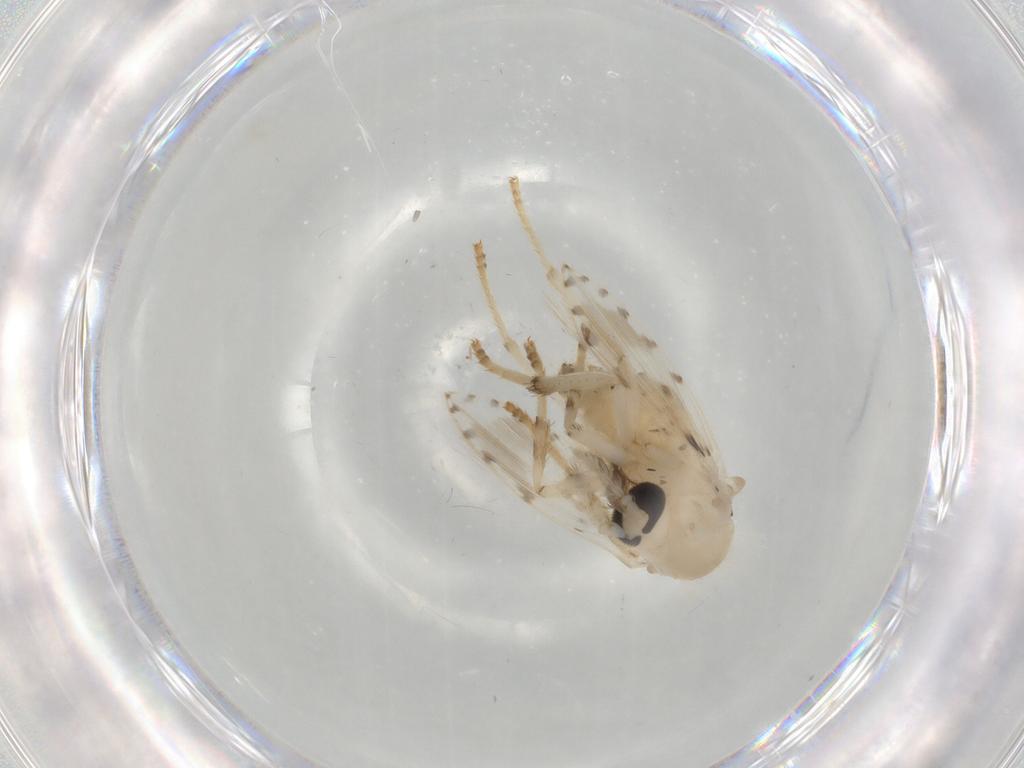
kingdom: Animalia
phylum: Arthropoda
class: Insecta
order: Diptera
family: Psychodidae
